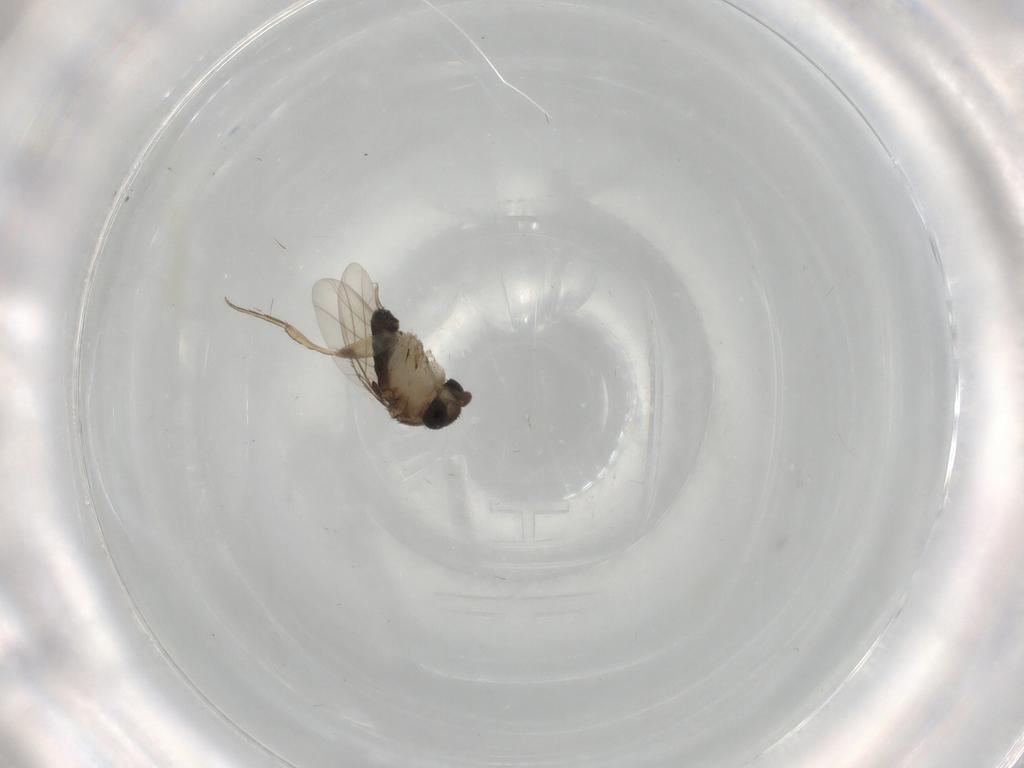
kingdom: Animalia
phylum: Arthropoda
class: Insecta
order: Diptera
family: Phoridae
